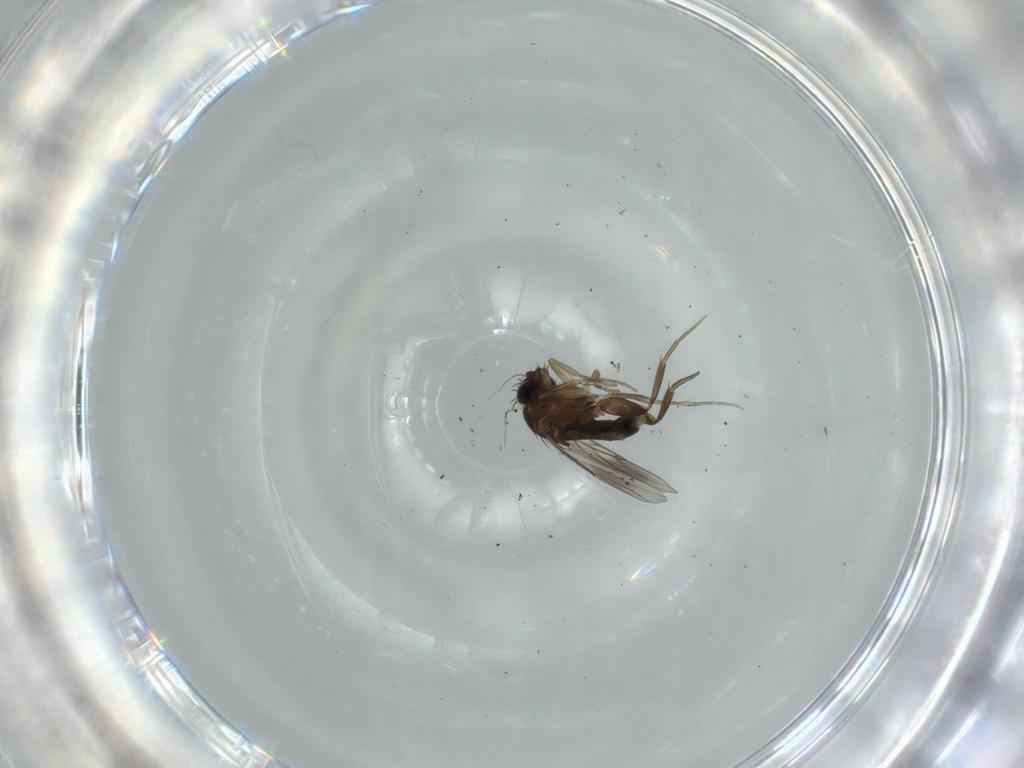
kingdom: Animalia
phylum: Arthropoda
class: Insecta
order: Diptera
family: Phoridae
